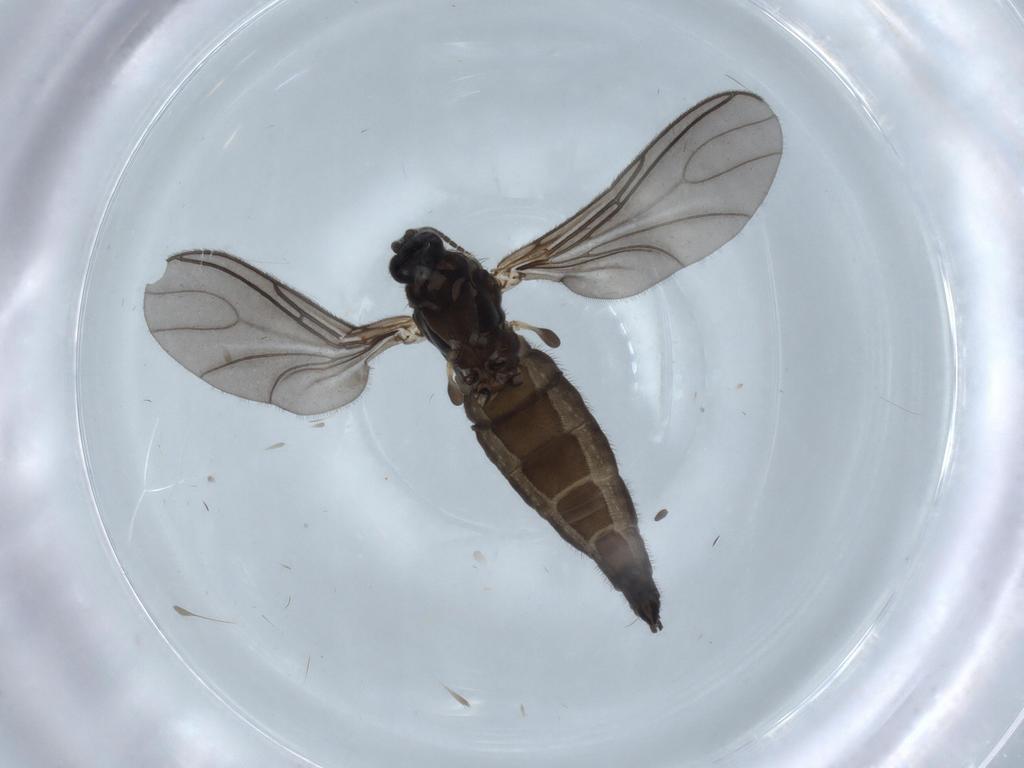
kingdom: Animalia
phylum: Arthropoda
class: Insecta
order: Diptera
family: Sciaridae
